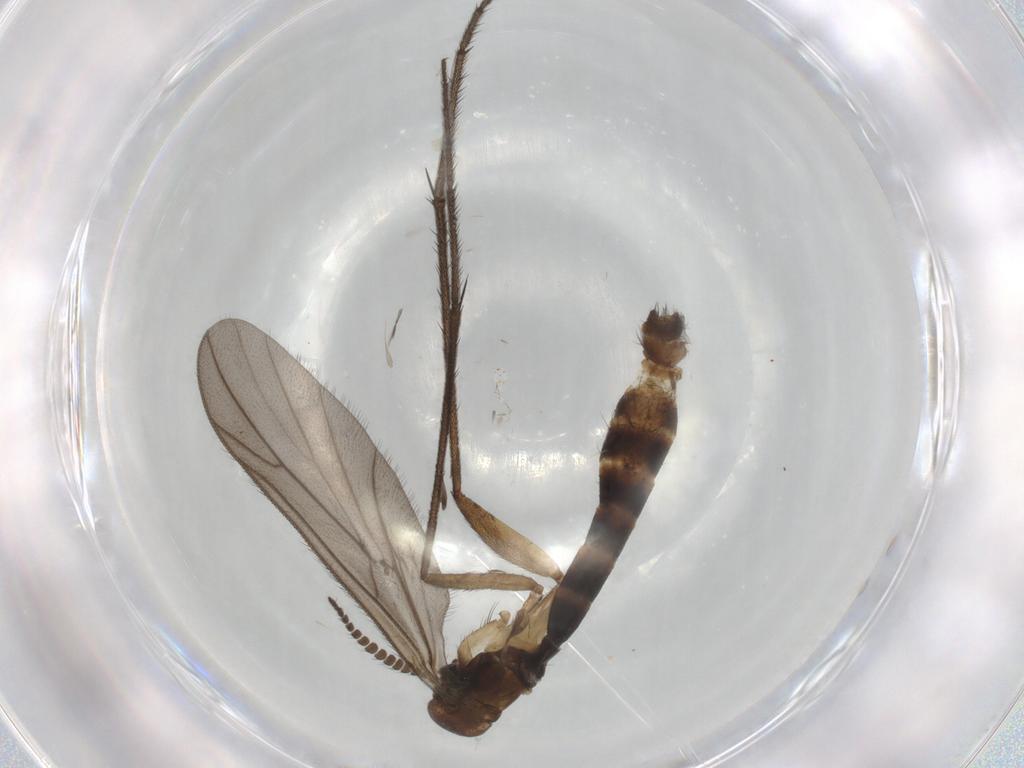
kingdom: Animalia
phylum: Arthropoda
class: Insecta
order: Diptera
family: Cecidomyiidae
